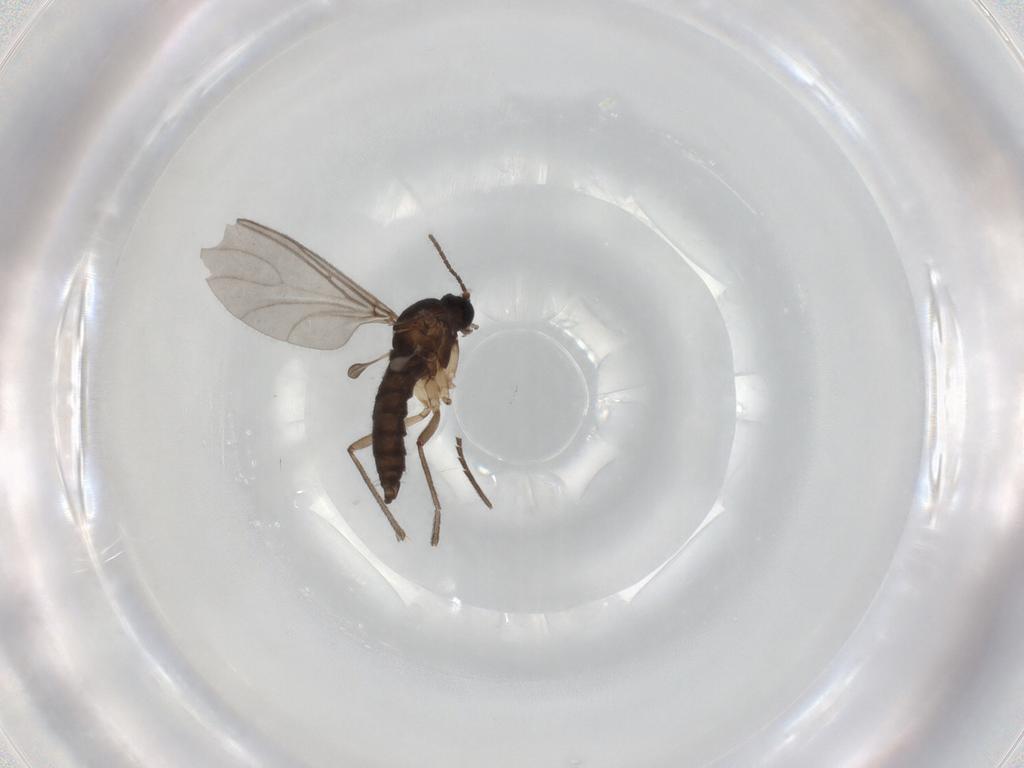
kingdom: Animalia
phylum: Arthropoda
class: Insecta
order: Diptera
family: Sciaridae
